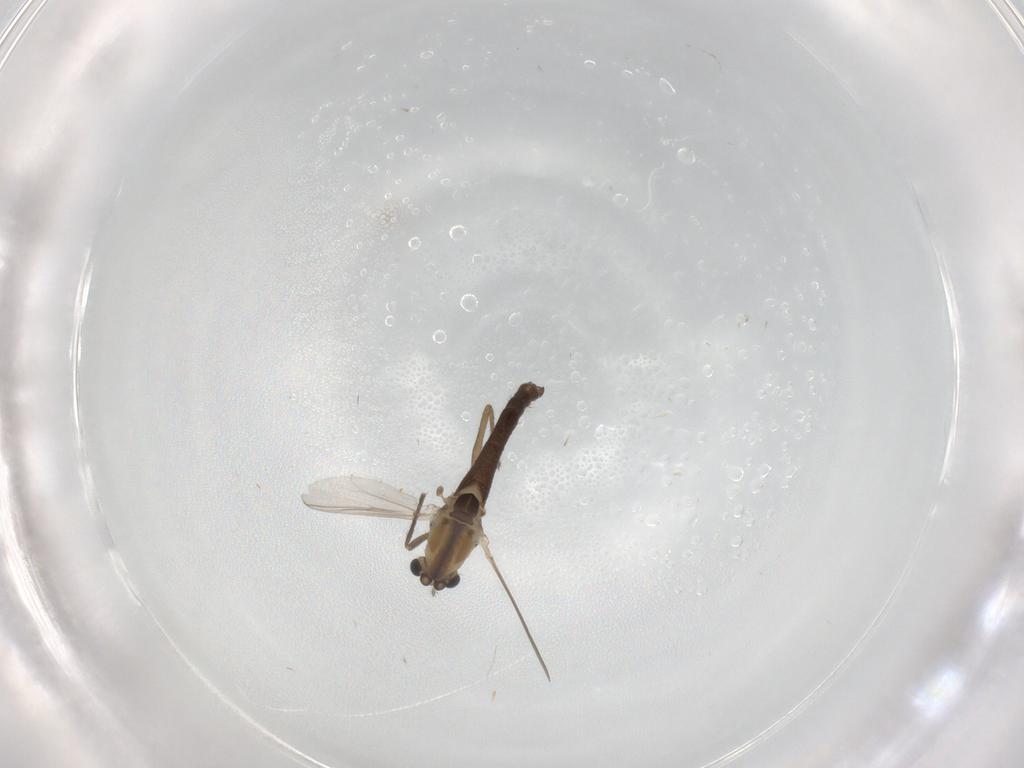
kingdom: Animalia
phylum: Arthropoda
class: Insecta
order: Diptera
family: Chironomidae
